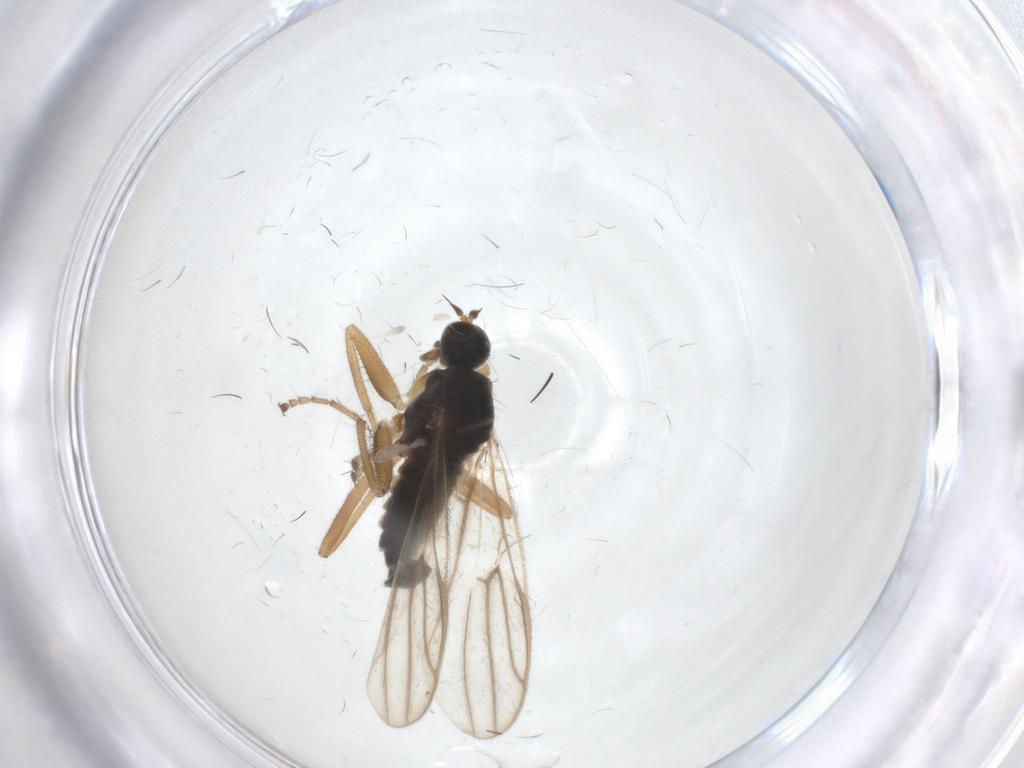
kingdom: Animalia
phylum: Arthropoda
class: Insecta
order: Diptera
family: Hybotidae
